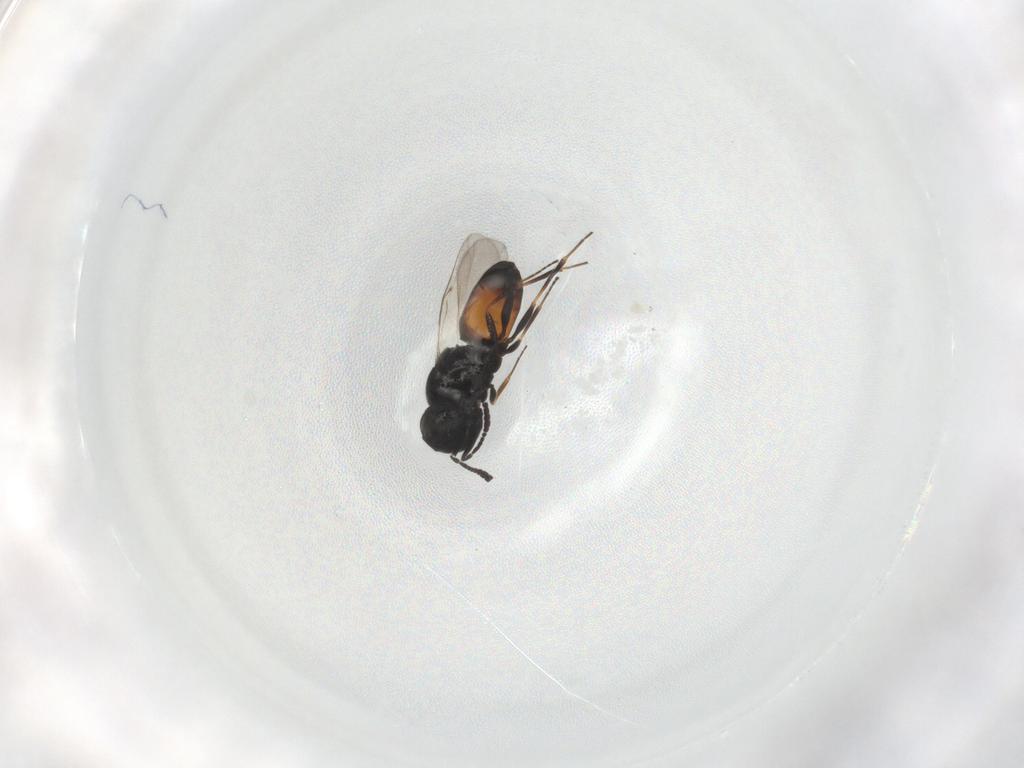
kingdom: Animalia
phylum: Arthropoda
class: Insecta
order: Hymenoptera
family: Scelionidae
